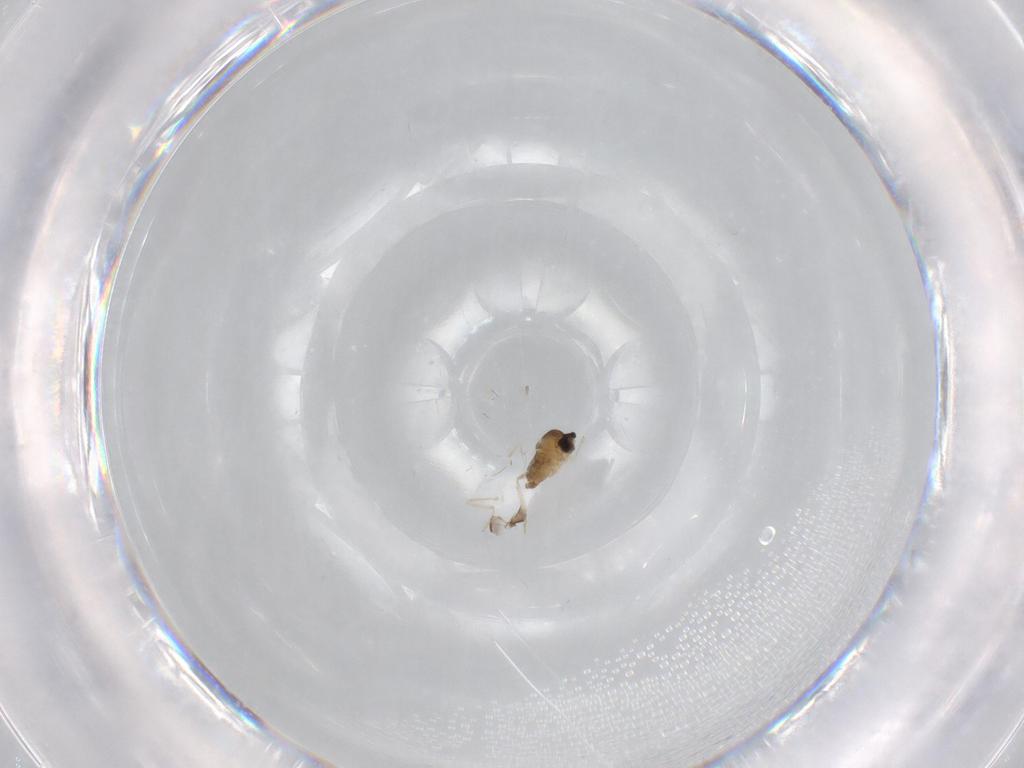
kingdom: Animalia
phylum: Arthropoda
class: Insecta
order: Diptera
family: Cecidomyiidae
